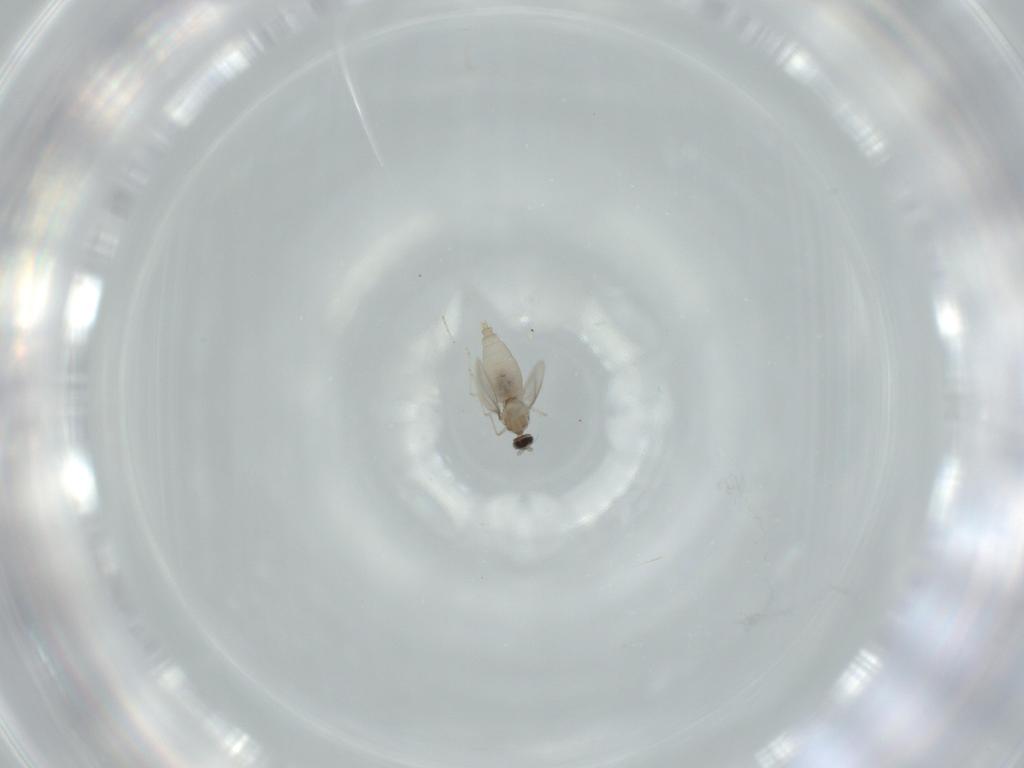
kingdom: Animalia
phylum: Arthropoda
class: Insecta
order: Diptera
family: Cecidomyiidae
